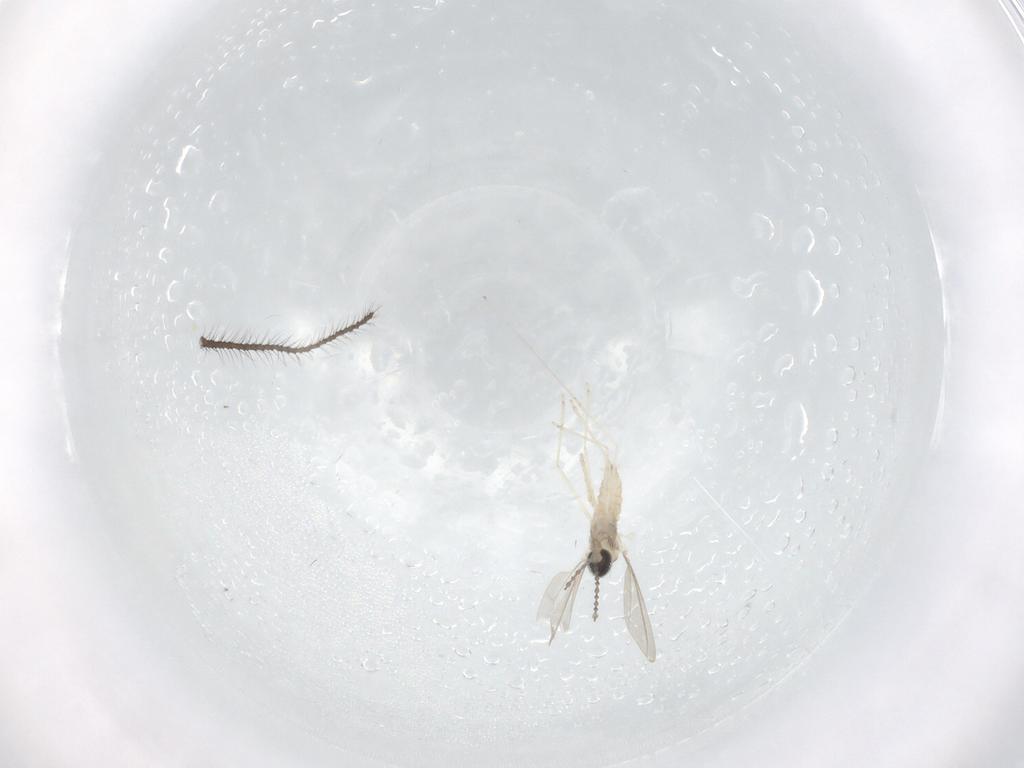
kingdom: Animalia
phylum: Arthropoda
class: Insecta
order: Diptera
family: Cecidomyiidae
